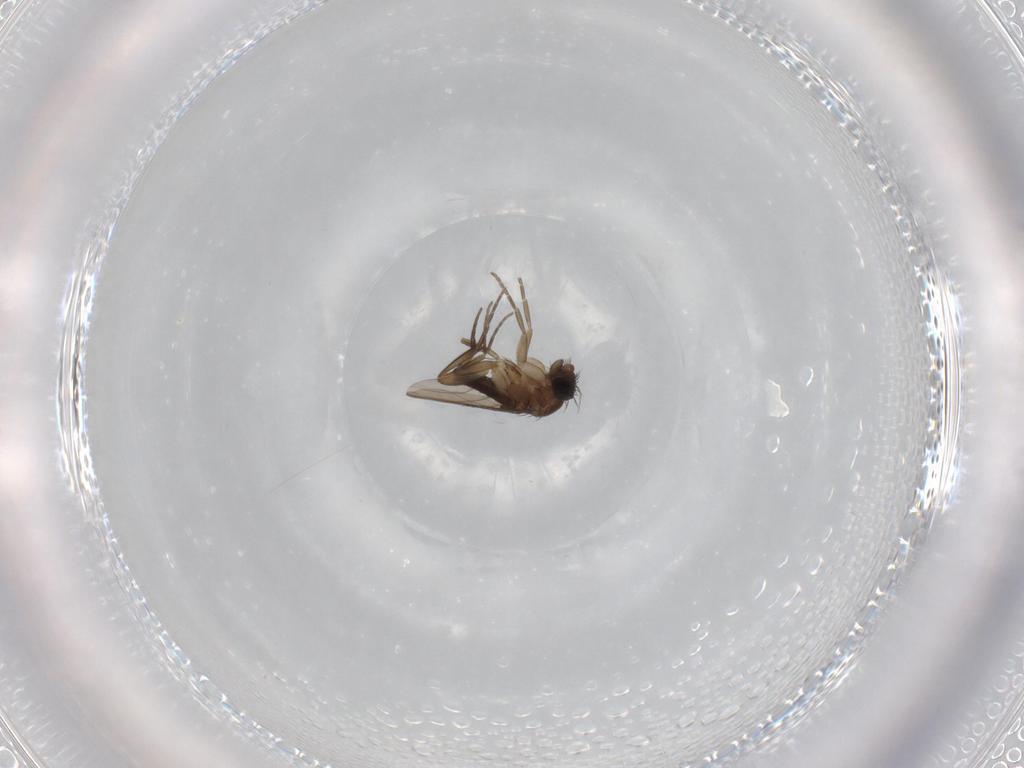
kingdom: Animalia
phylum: Arthropoda
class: Insecta
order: Diptera
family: Phoridae
